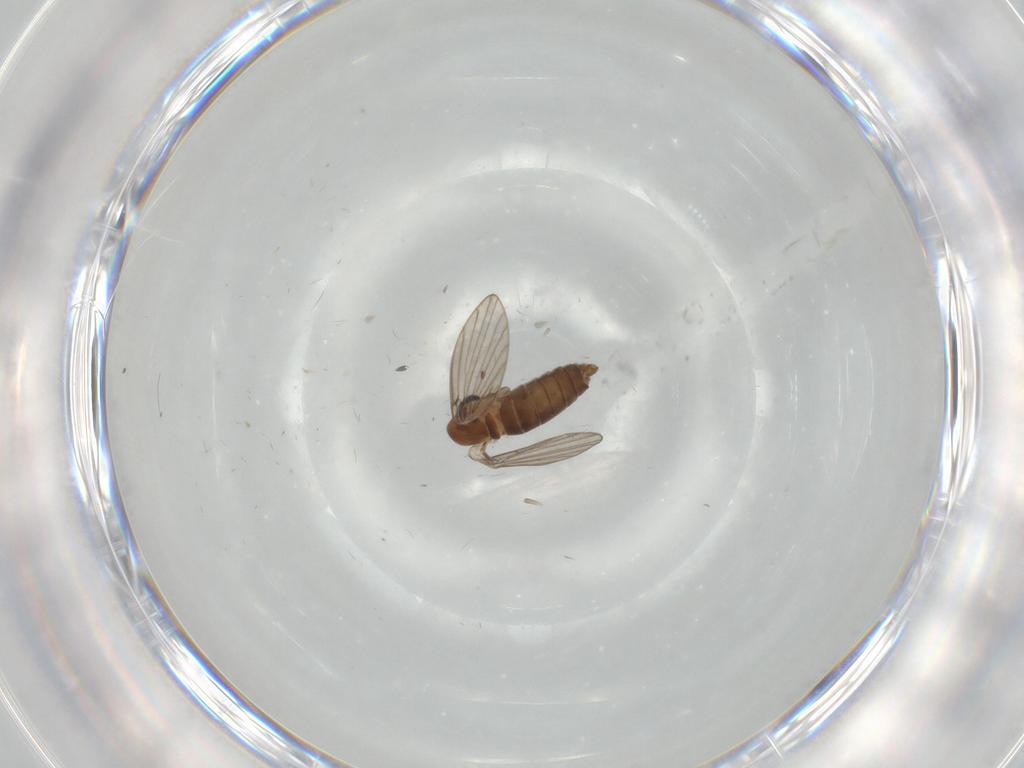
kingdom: Animalia
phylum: Arthropoda
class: Insecta
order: Diptera
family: Psychodidae
